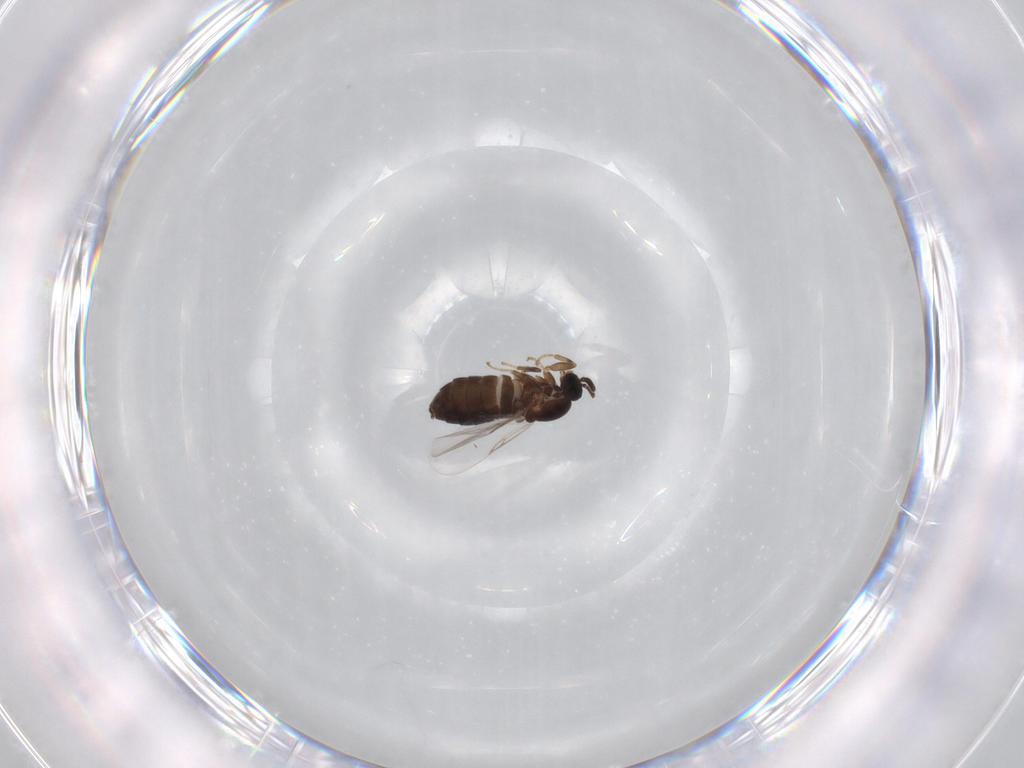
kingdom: Animalia
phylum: Arthropoda
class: Insecta
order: Diptera
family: Scatopsidae
